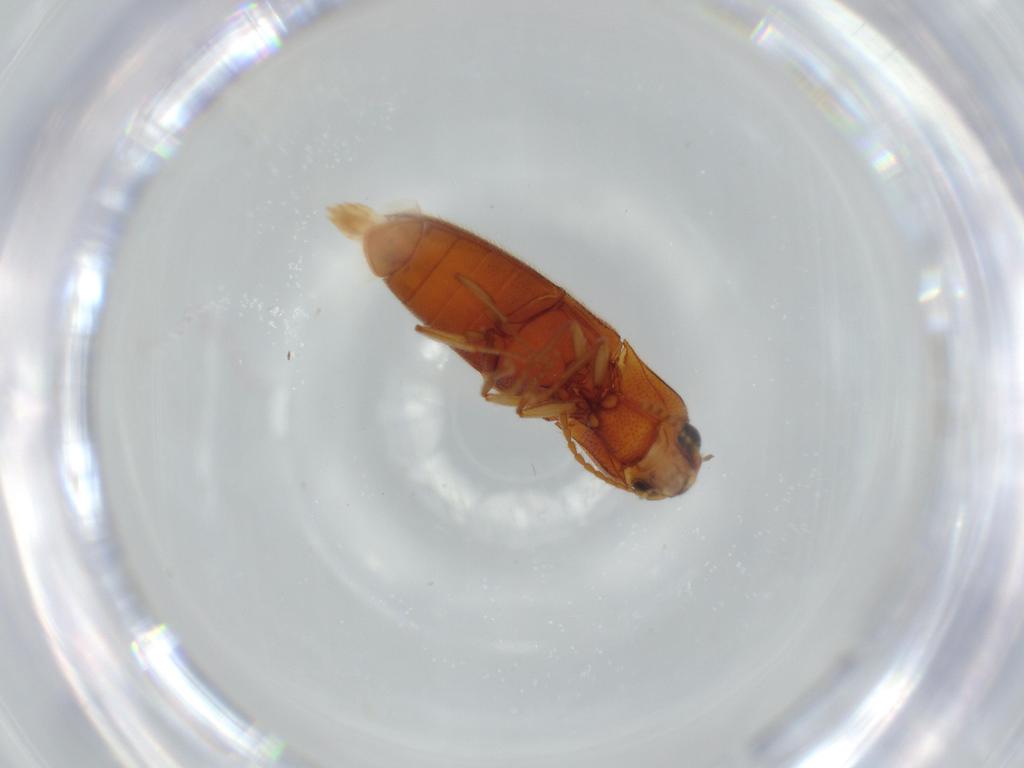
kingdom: Animalia
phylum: Arthropoda
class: Insecta
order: Coleoptera
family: Elateridae
